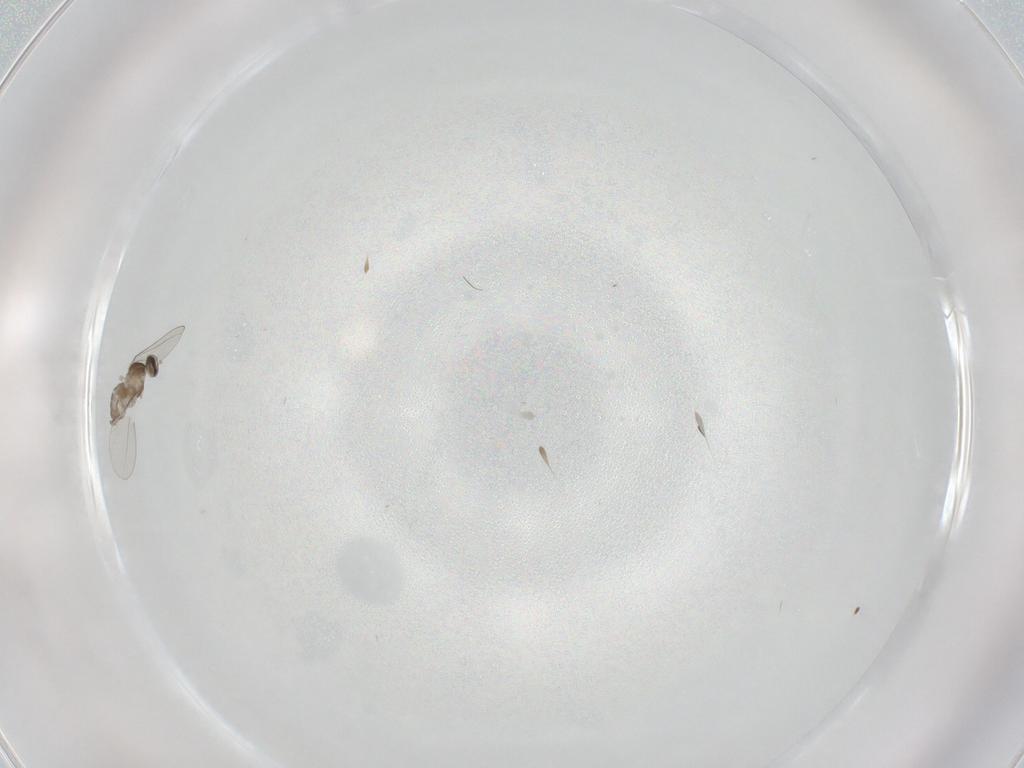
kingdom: Animalia
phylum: Arthropoda
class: Insecta
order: Diptera
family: Cecidomyiidae
